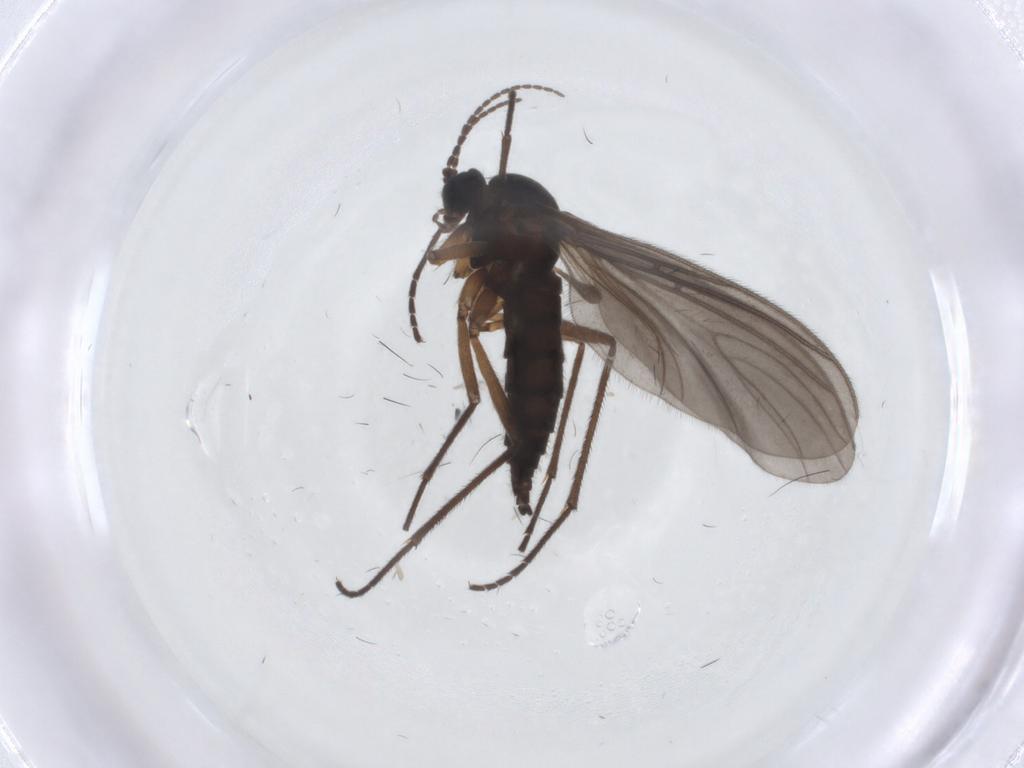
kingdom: Animalia
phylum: Arthropoda
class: Insecta
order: Diptera
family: Sciaridae
